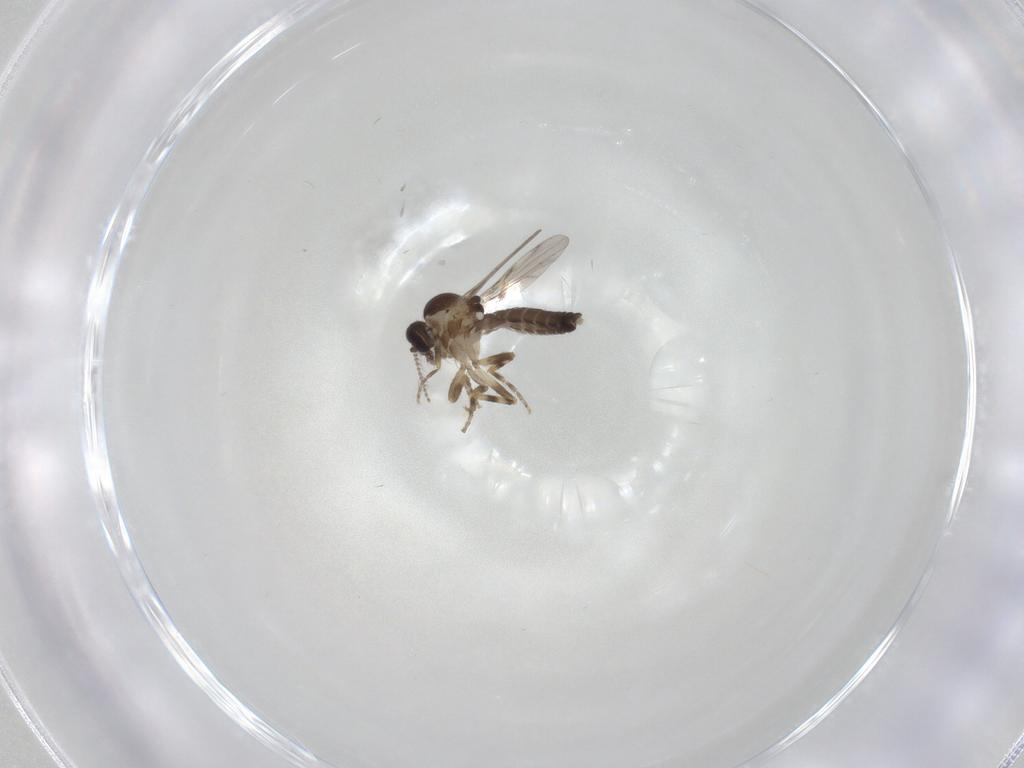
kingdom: Animalia
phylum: Arthropoda
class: Insecta
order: Diptera
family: Ceratopogonidae
